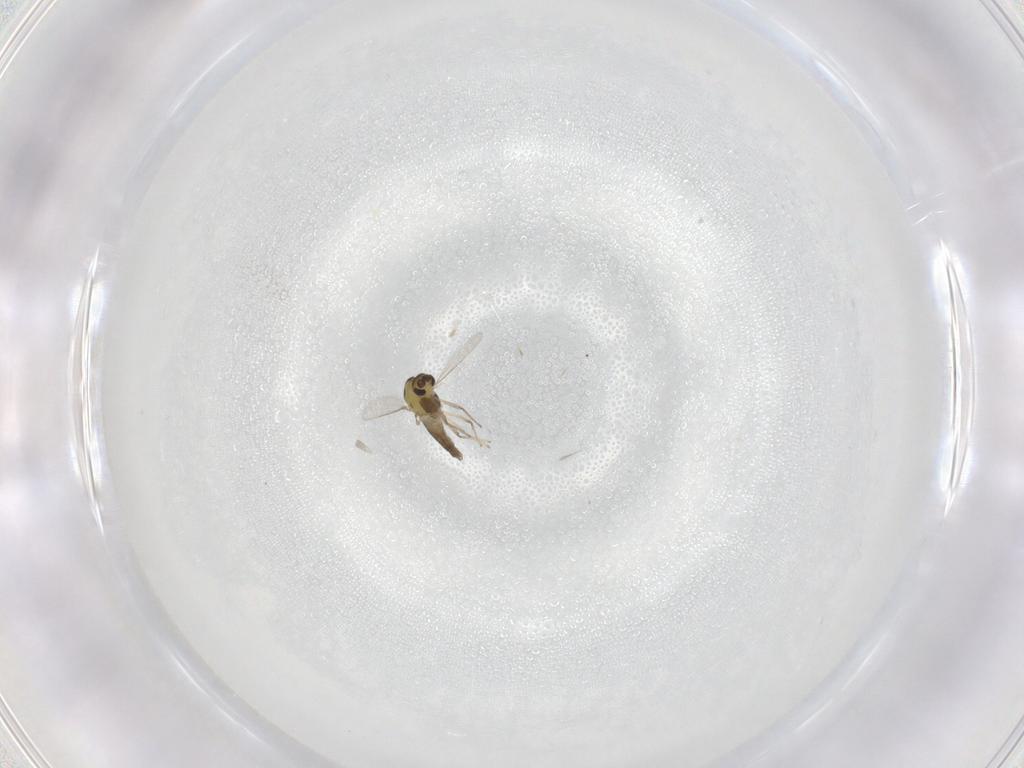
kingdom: Animalia
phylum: Arthropoda
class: Insecta
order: Diptera
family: Chironomidae
